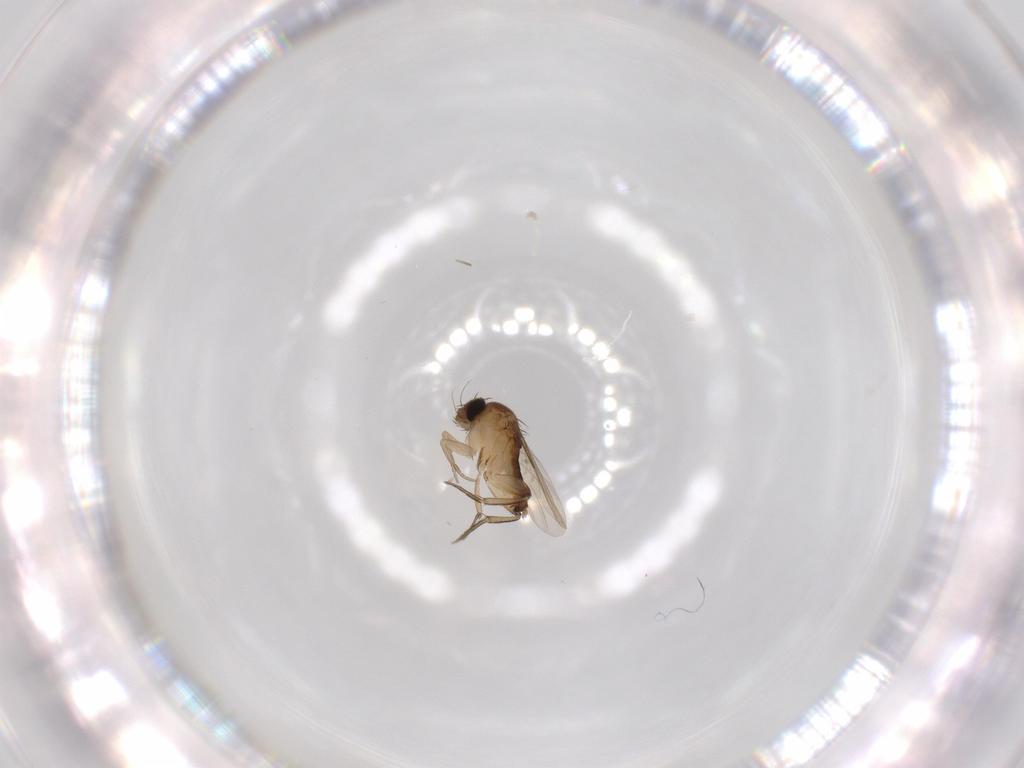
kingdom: Animalia
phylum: Arthropoda
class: Insecta
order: Diptera
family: Phoridae
